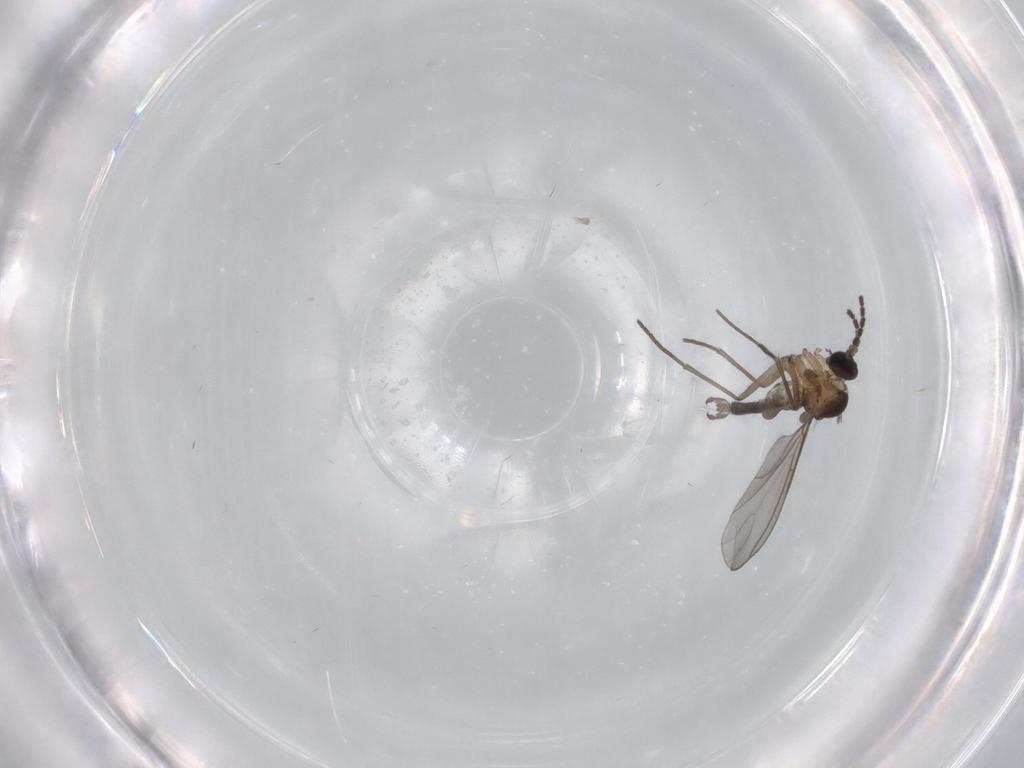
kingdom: Animalia
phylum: Arthropoda
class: Insecta
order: Diptera
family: Sciaridae
